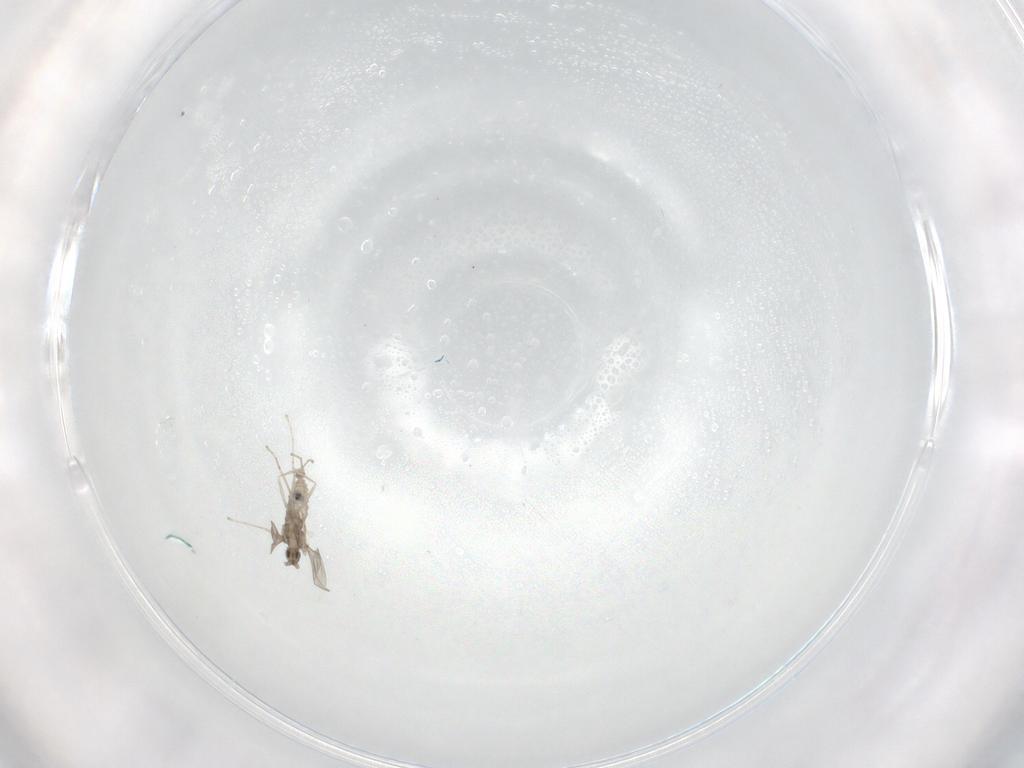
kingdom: Animalia
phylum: Arthropoda
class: Insecta
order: Diptera
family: Cecidomyiidae
